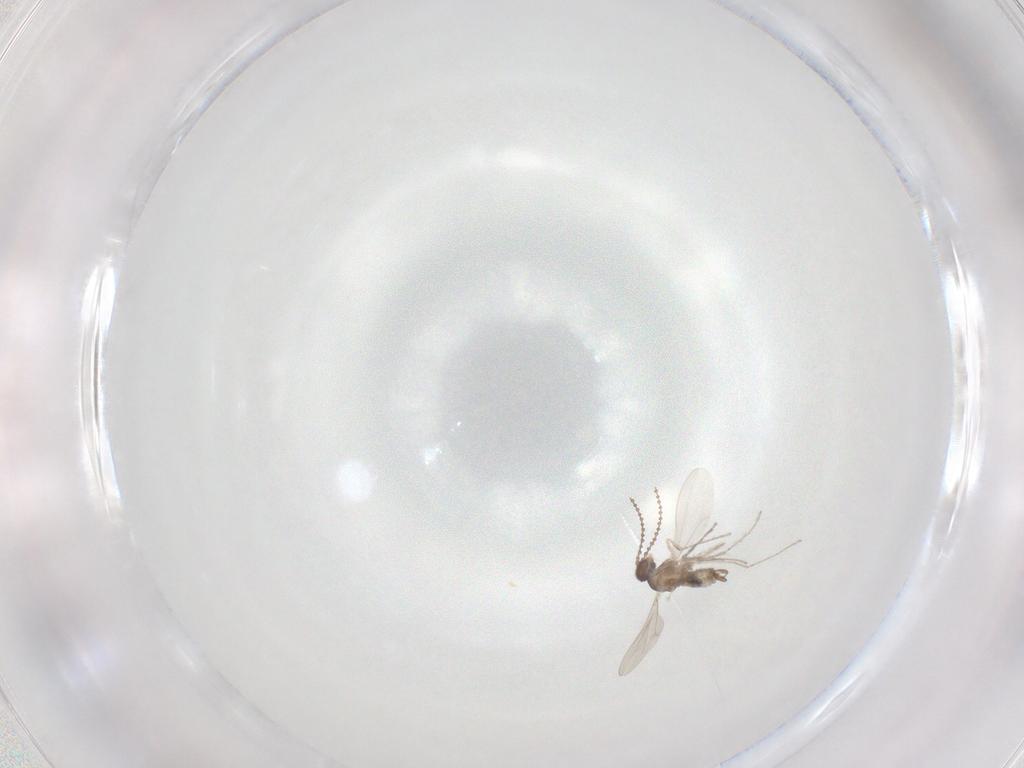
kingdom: Animalia
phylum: Arthropoda
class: Insecta
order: Diptera
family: Cecidomyiidae
